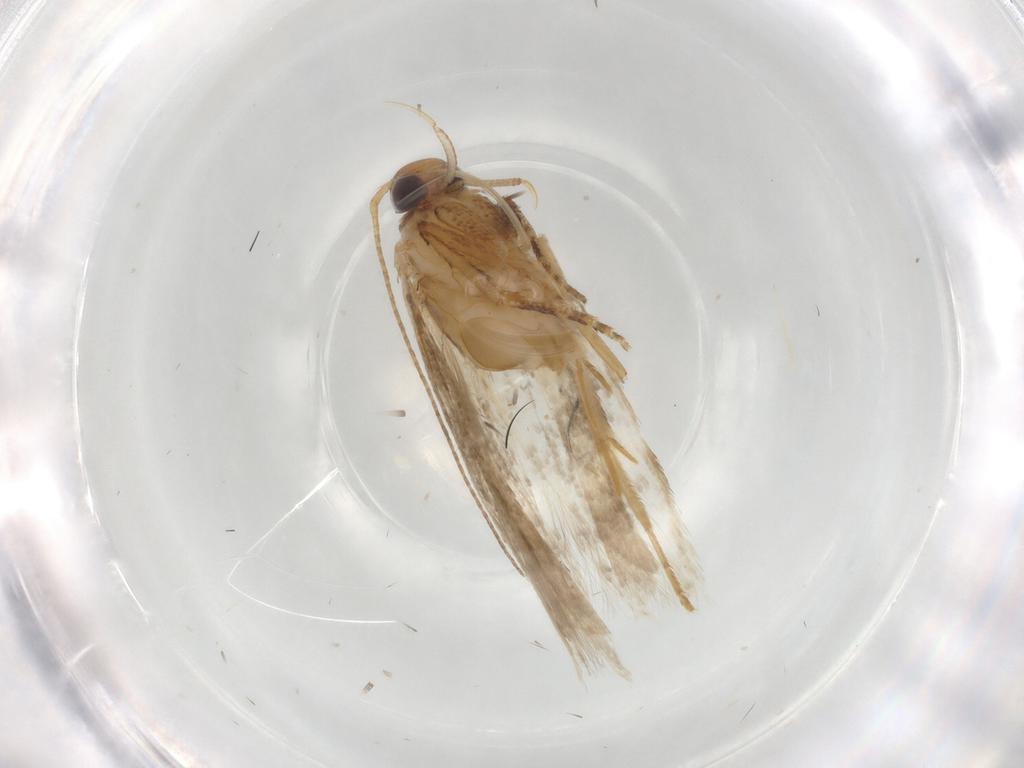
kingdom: Animalia
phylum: Arthropoda
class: Insecta
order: Lepidoptera
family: Gelechiidae
